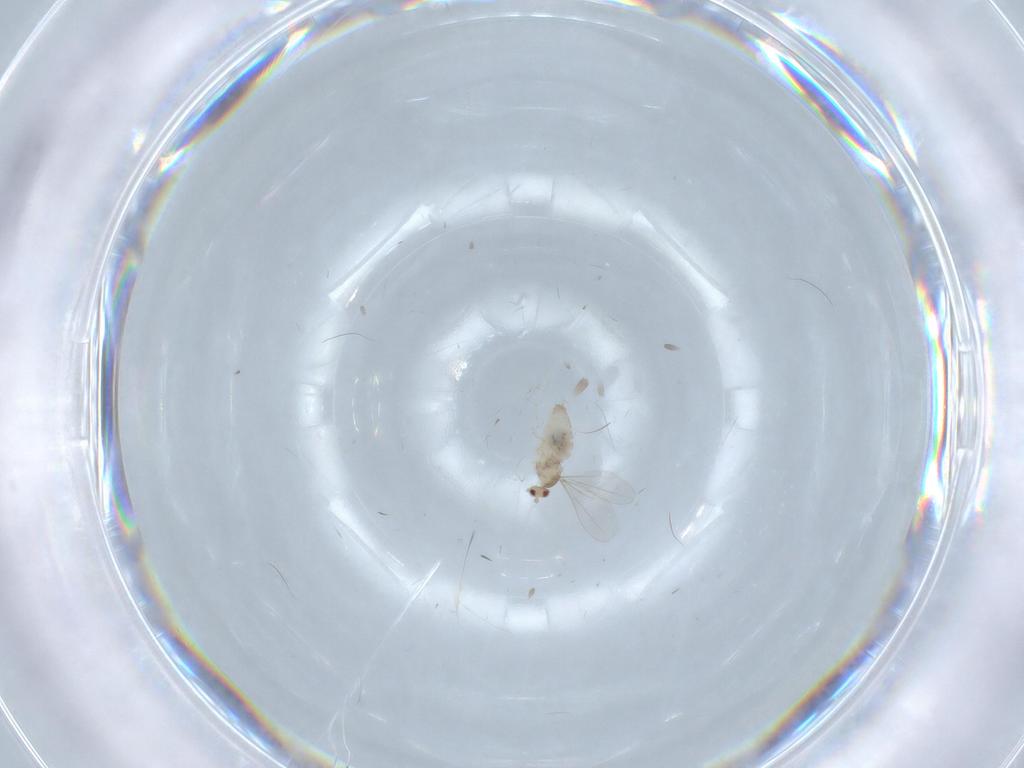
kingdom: Animalia
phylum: Arthropoda
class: Insecta
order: Diptera
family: Cecidomyiidae
